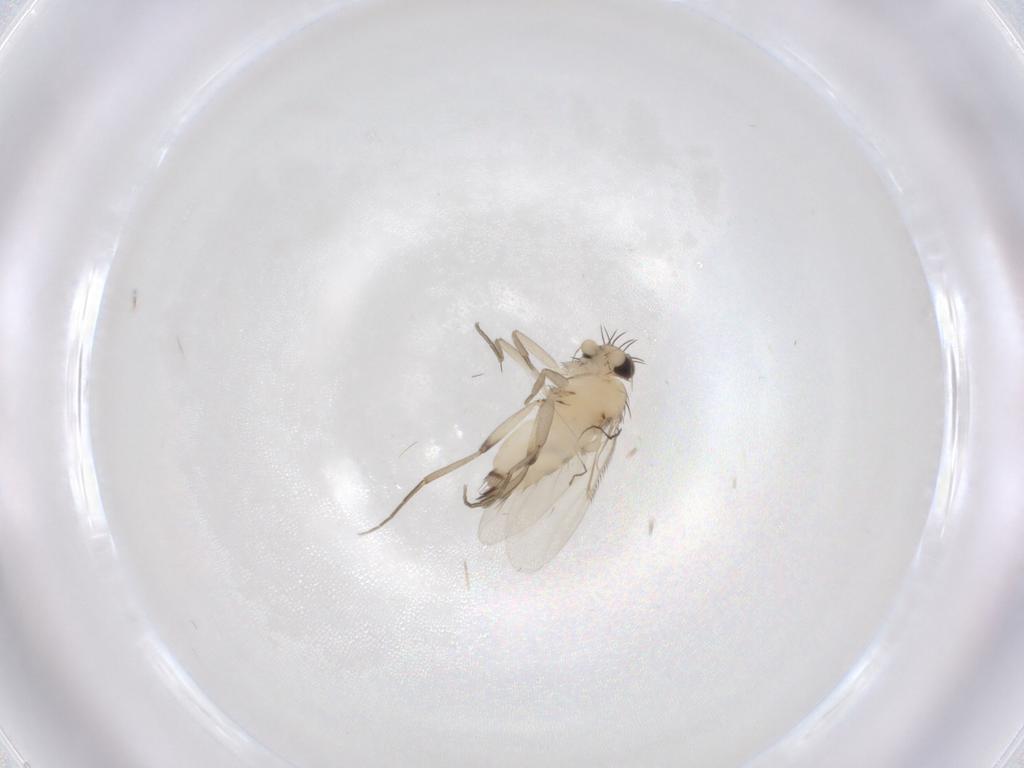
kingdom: Animalia
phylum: Arthropoda
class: Insecta
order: Diptera
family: Phoridae
